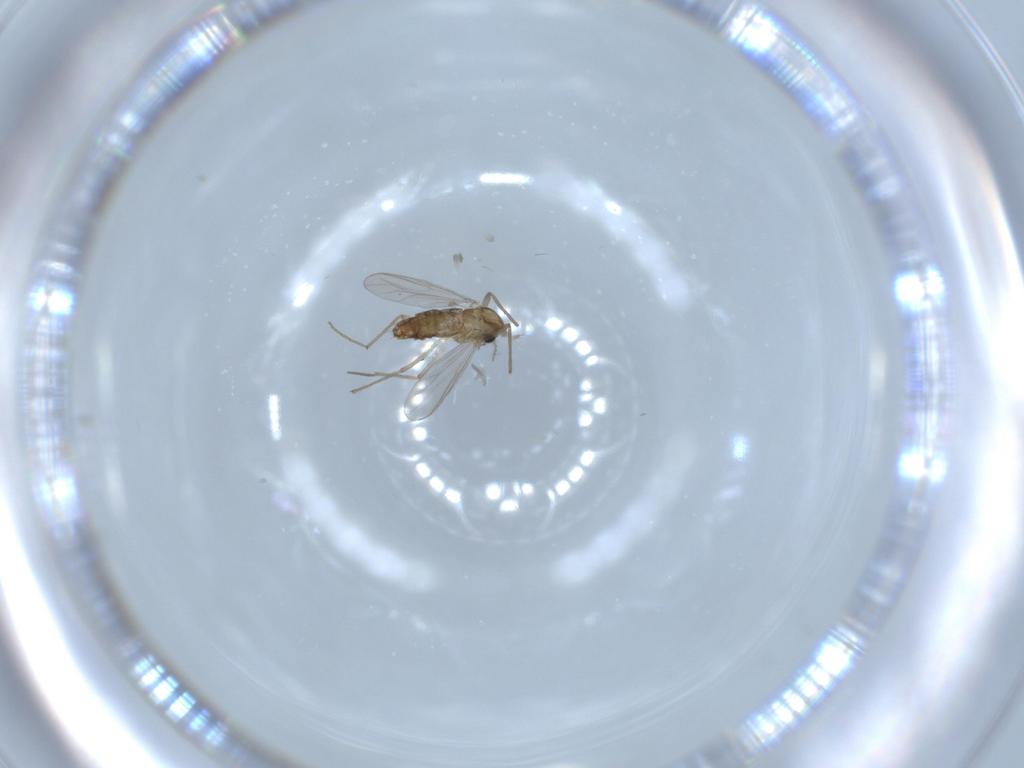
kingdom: Animalia
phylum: Arthropoda
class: Insecta
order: Diptera
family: Chironomidae
